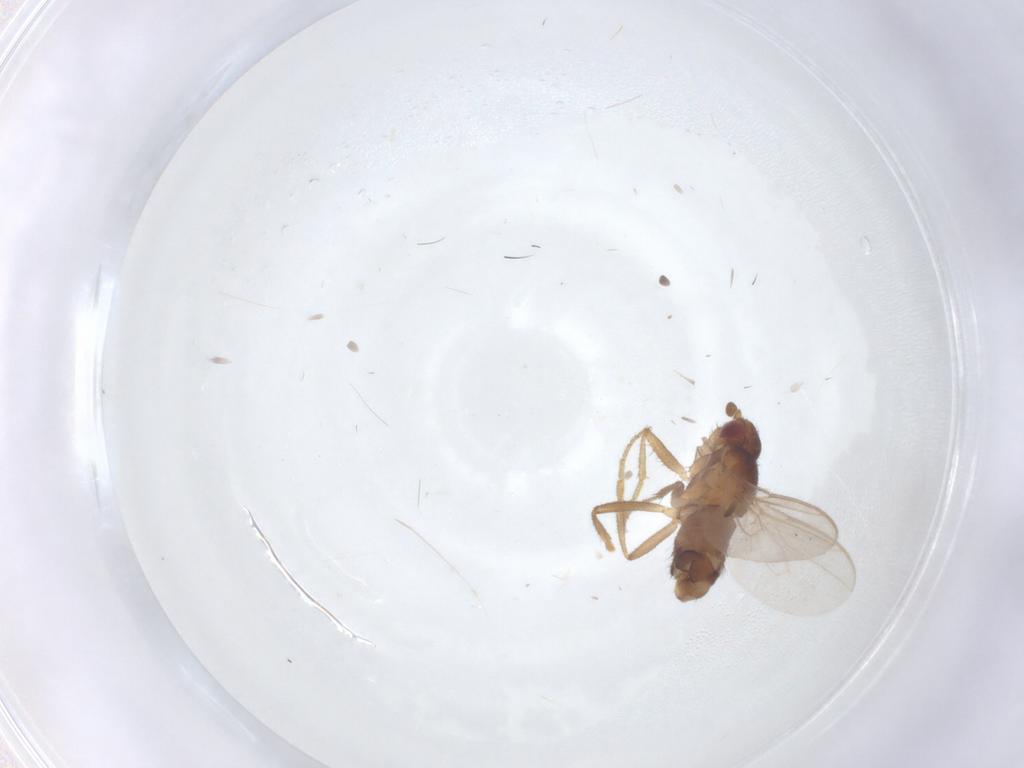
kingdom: Animalia
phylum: Arthropoda
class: Insecta
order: Diptera
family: Sphaeroceridae
